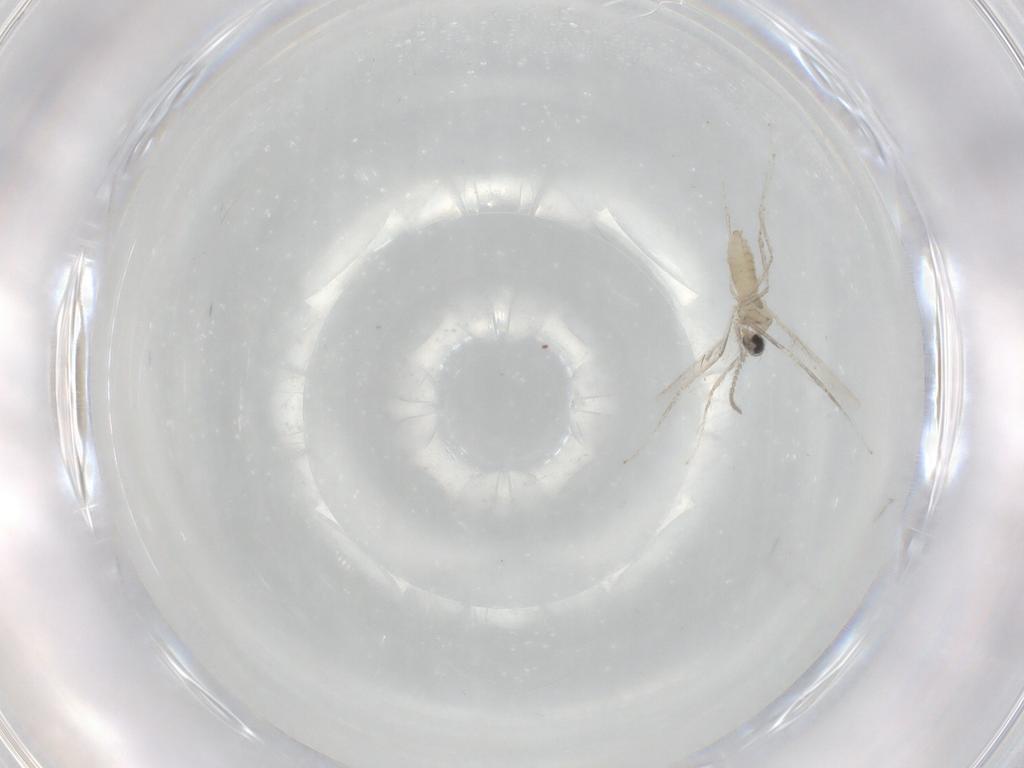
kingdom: Animalia
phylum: Arthropoda
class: Insecta
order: Diptera
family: Cecidomyiidae
